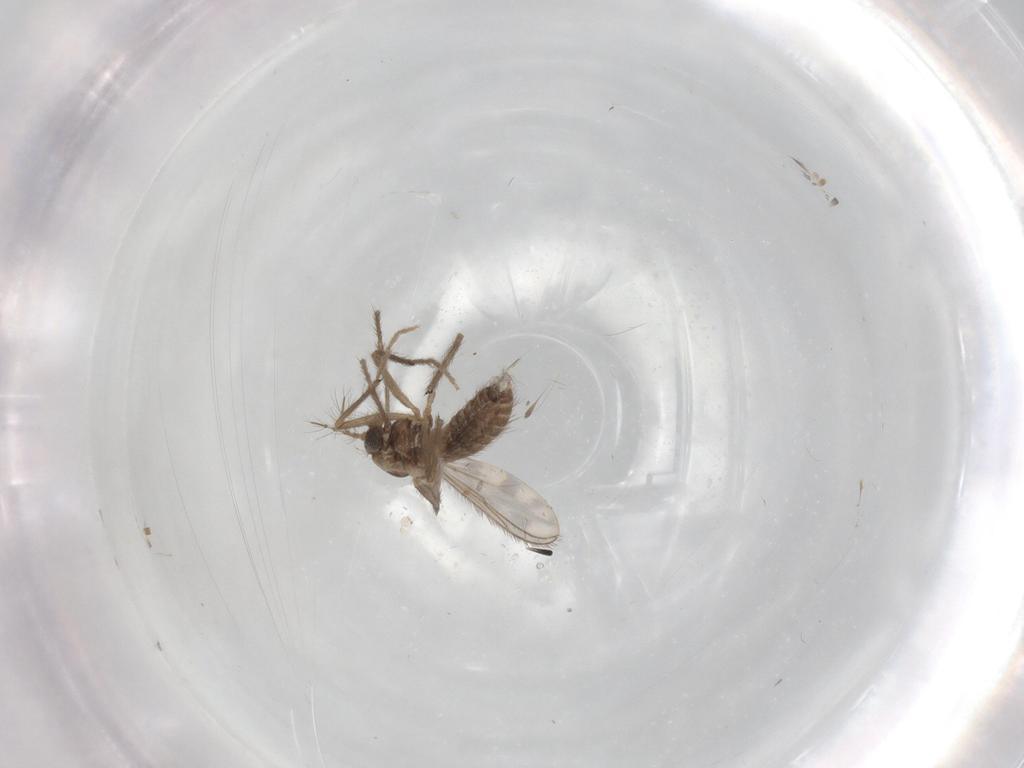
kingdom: Animalia
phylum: Arthropoda
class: Insecta
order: Diptera
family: Chironomidae
